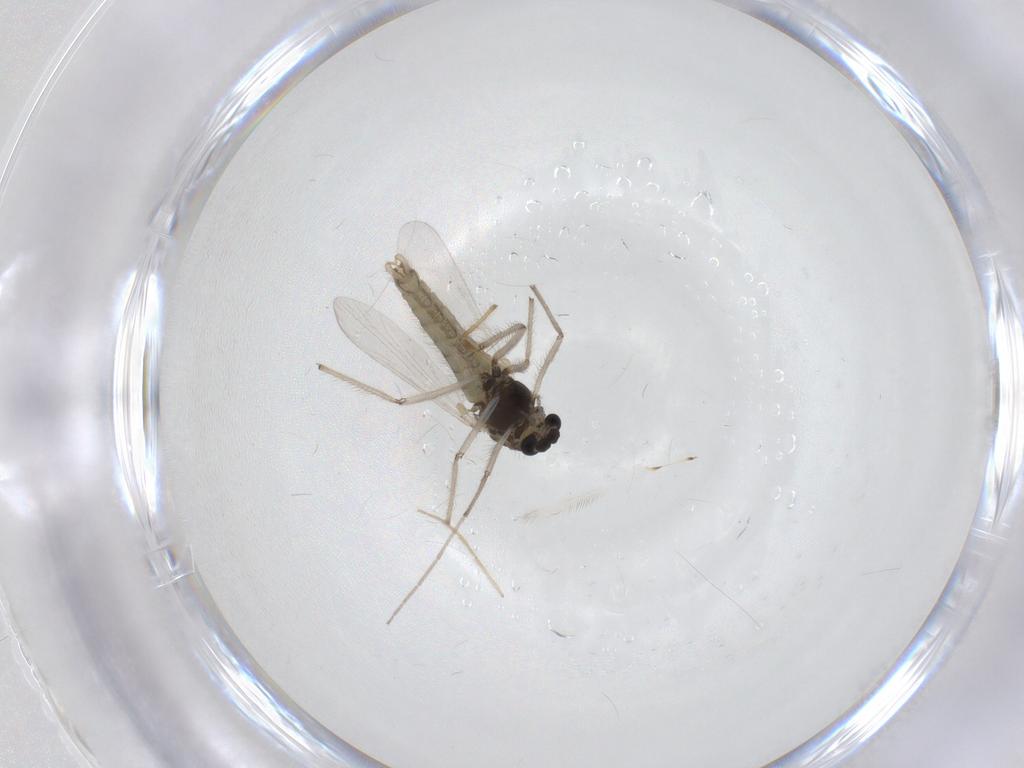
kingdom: Animalia
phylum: Arthropoda
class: Insecta
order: Diptera
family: Chironomidae
